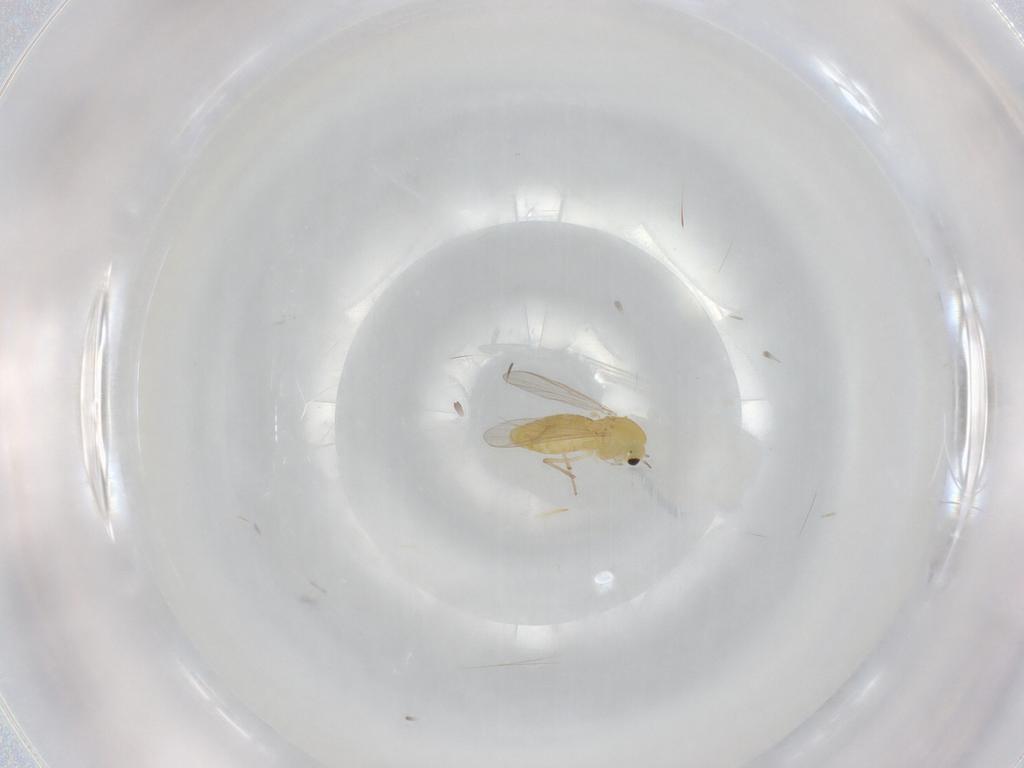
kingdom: Animalia
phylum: Arthropoda
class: Insecta
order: Diptera
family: Chironomidae
